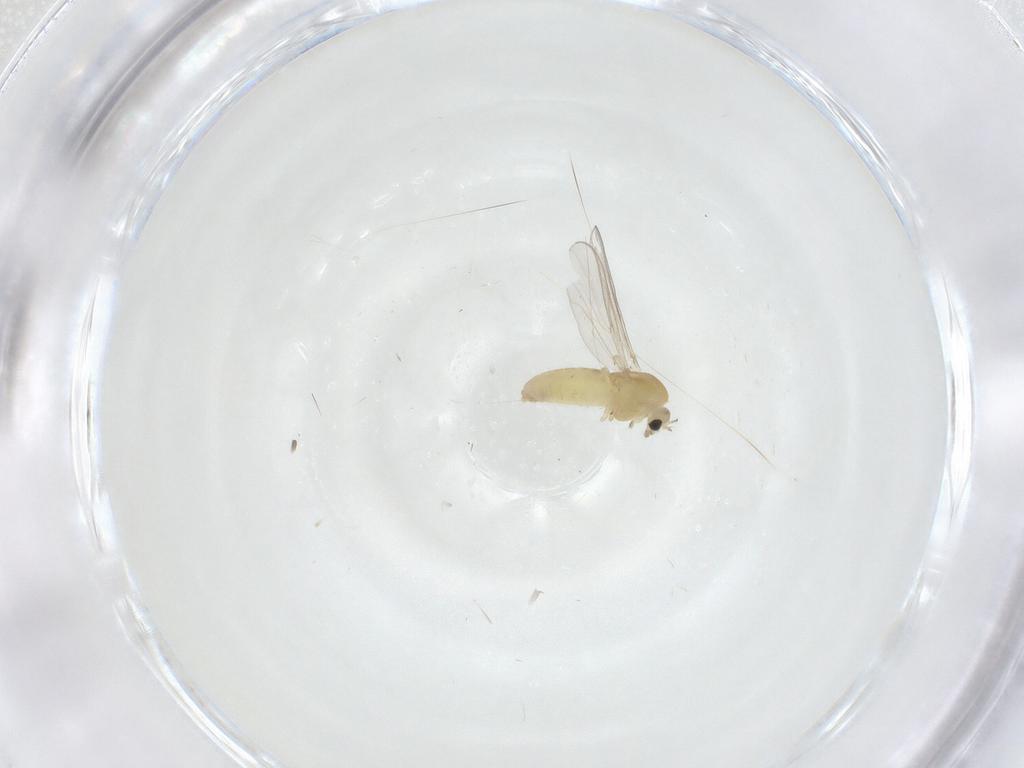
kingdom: Animalia
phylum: Arthropoda
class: Insecta
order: Diptera
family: Chironomidae
